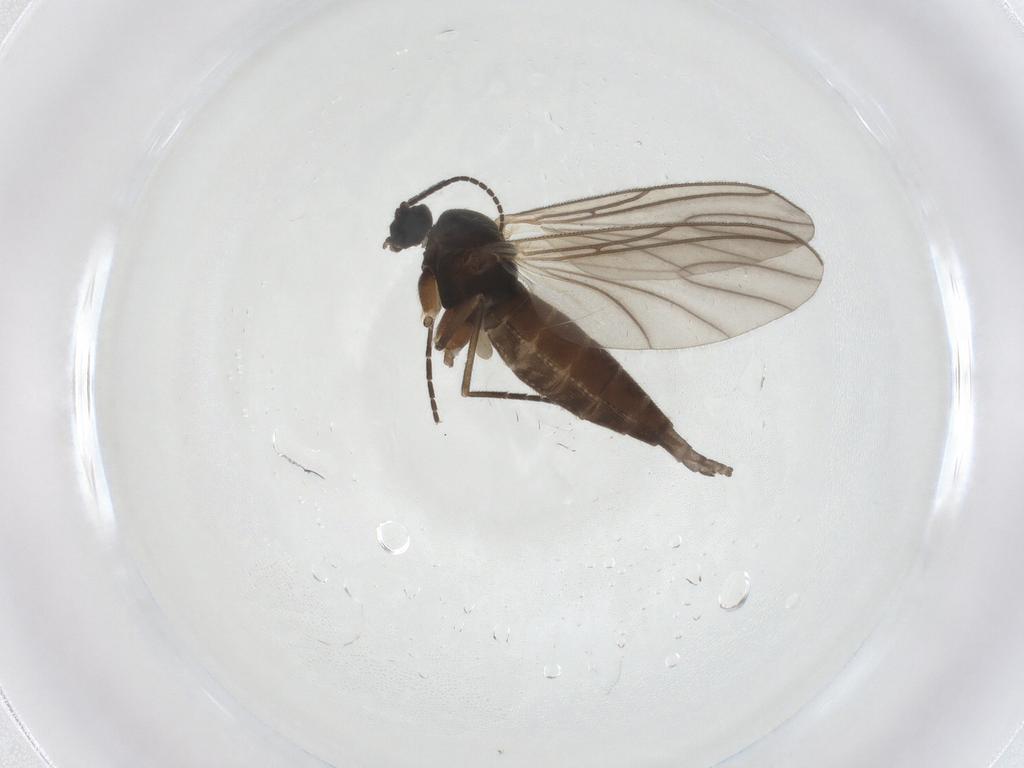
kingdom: Animalia
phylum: Arthropoda
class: Insecta
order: Diptera
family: Sciaridae
